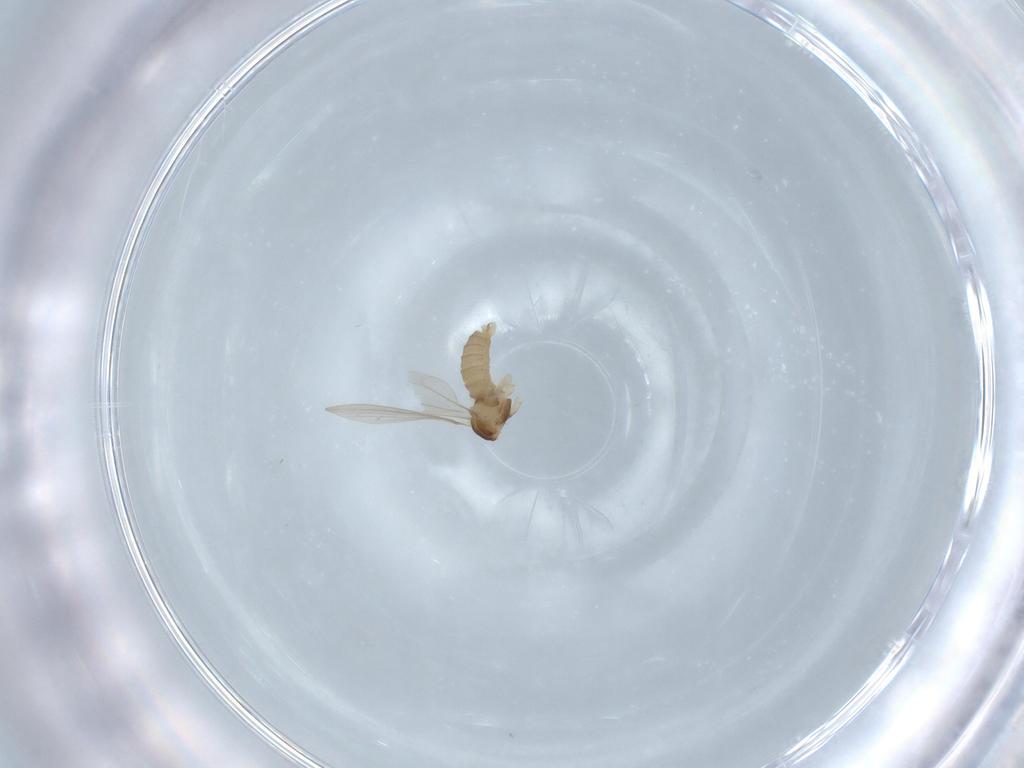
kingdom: Animalia
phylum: Arthropoda
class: Insecta
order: Diptera
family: Cecidomyiidae
